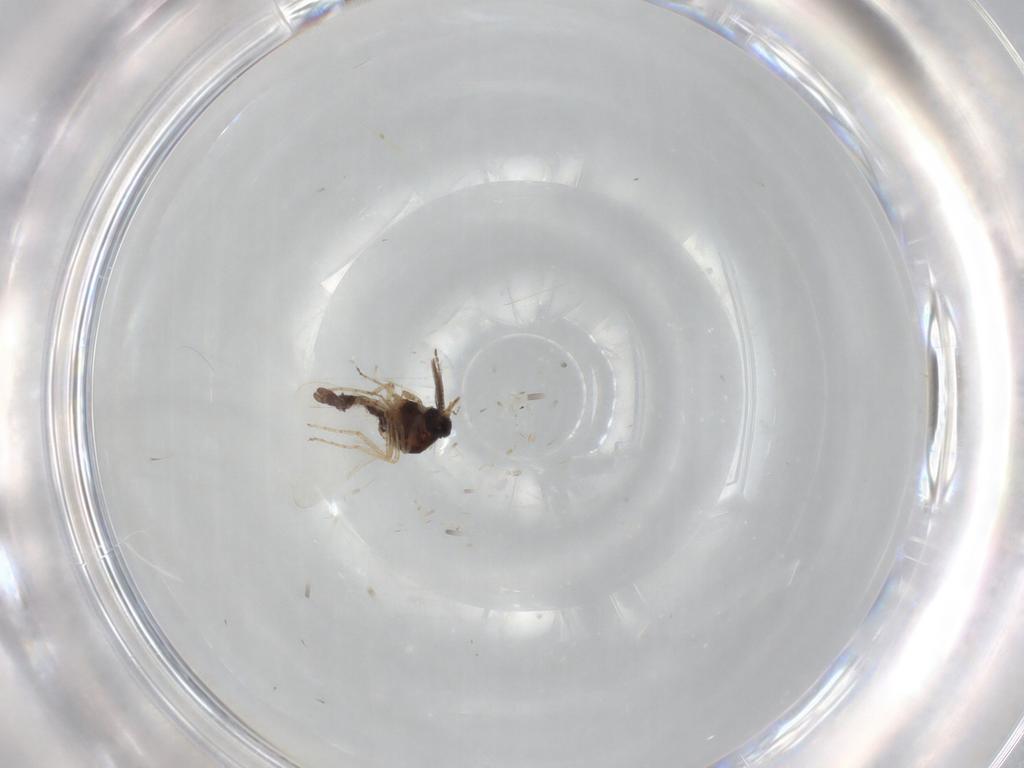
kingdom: Animalia
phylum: Arthropoda
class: Insecta
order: Diptera
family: Ceratopogonidae
